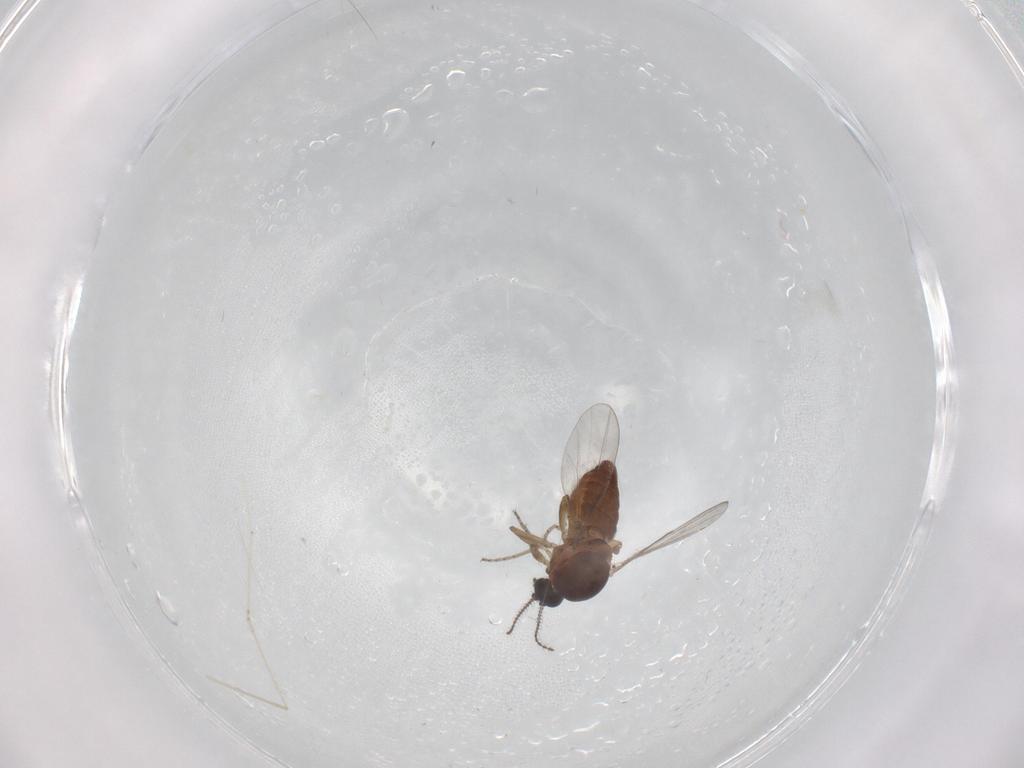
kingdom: Animalia
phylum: Arthropoda
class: Insecta
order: Diptera
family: Ceratopogonidae
